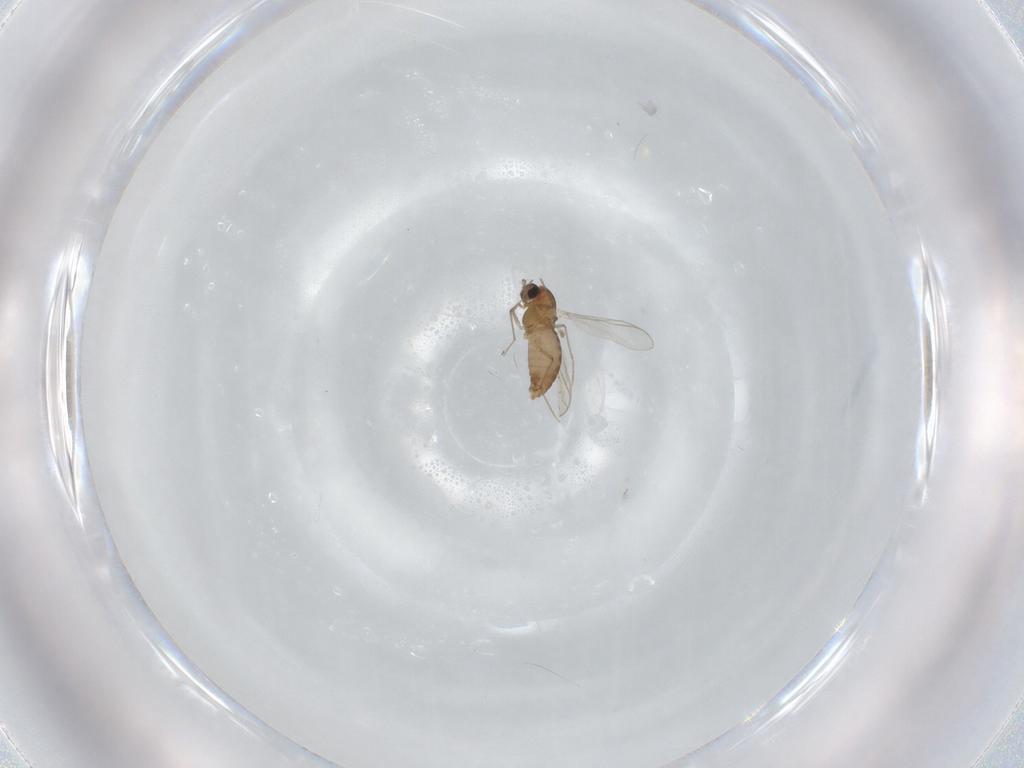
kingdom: Animalia
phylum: Arthropoda
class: Insecta
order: Diptera
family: Chironomidae
